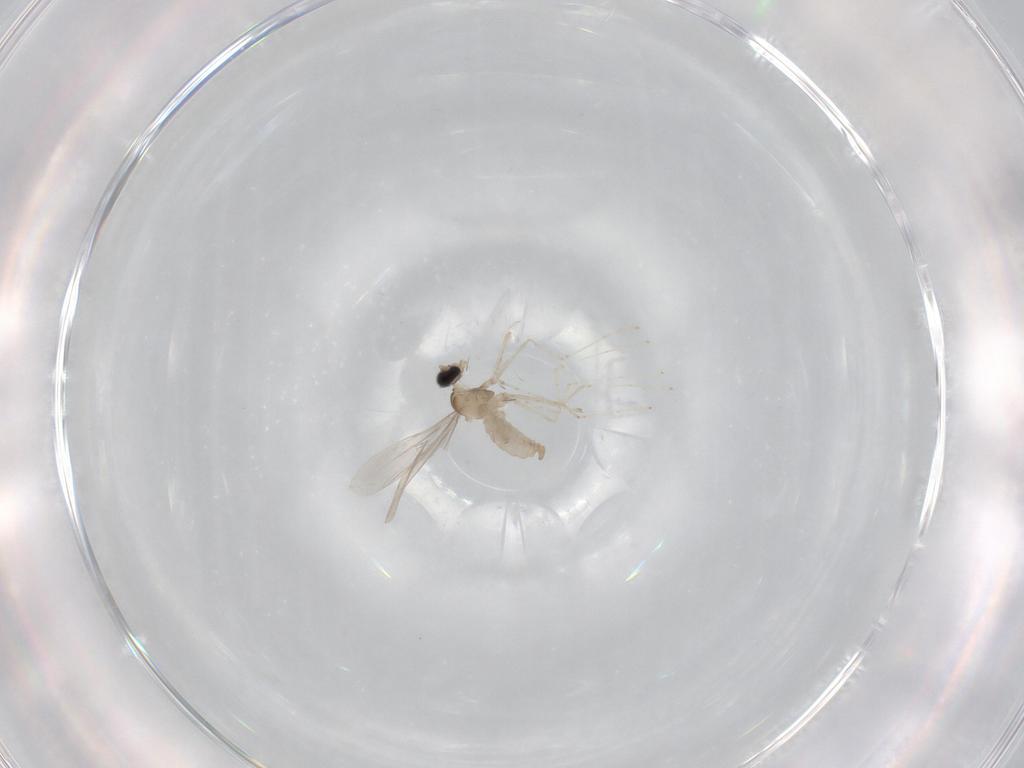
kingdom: Animalia
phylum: Arthropoda
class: Insecta
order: Diptera
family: Cecidomyiidae
